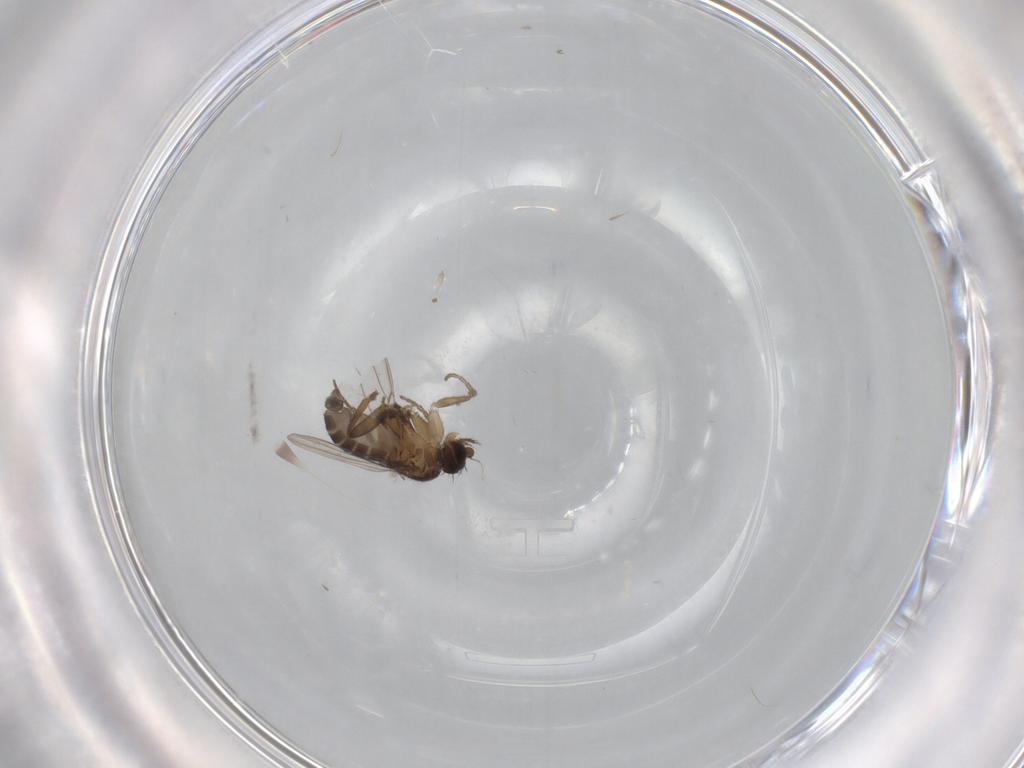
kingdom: Animalia
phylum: Arthropoda
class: Insecta
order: Diptera
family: Phoridae
